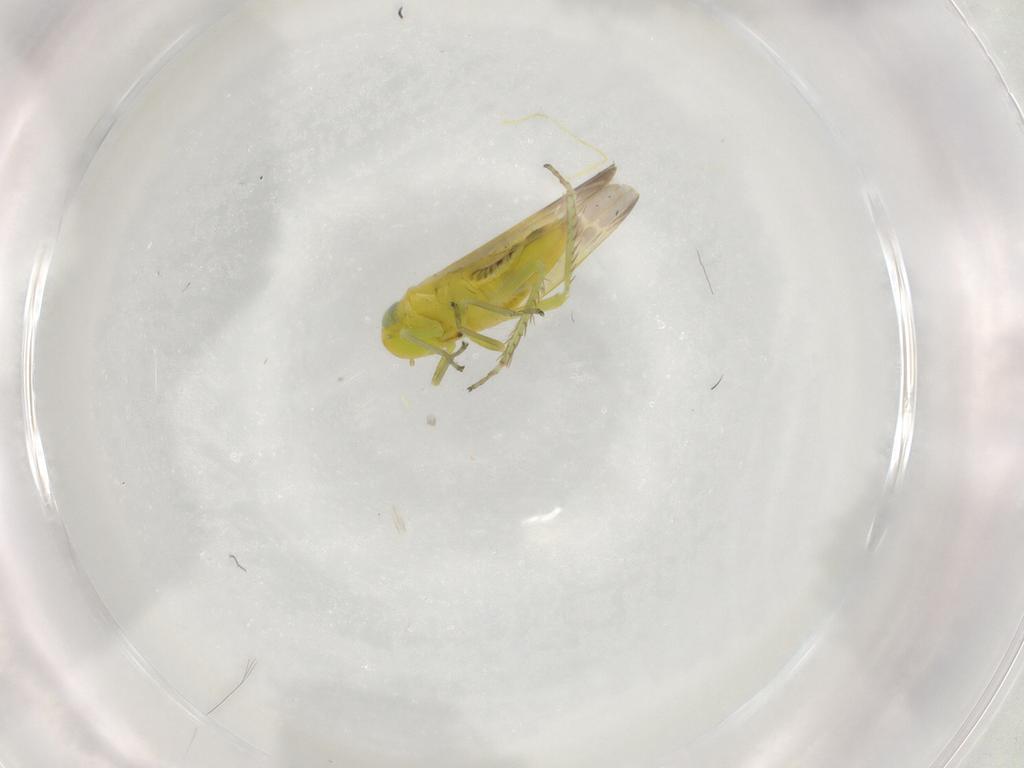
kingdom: Animalia
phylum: Arthropoda
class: Insecta
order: Hemiptera
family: Cicadellidae
